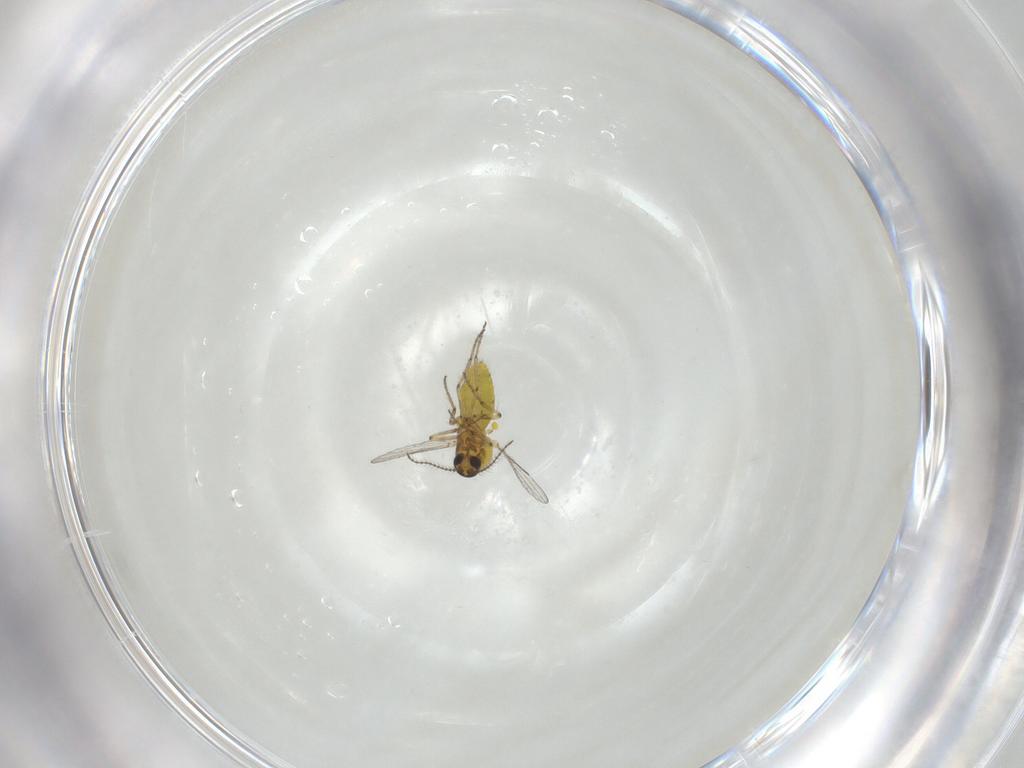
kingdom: Animalia
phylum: Arthropoda
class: Insecta
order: Diptera
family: Ceratopogonidae
